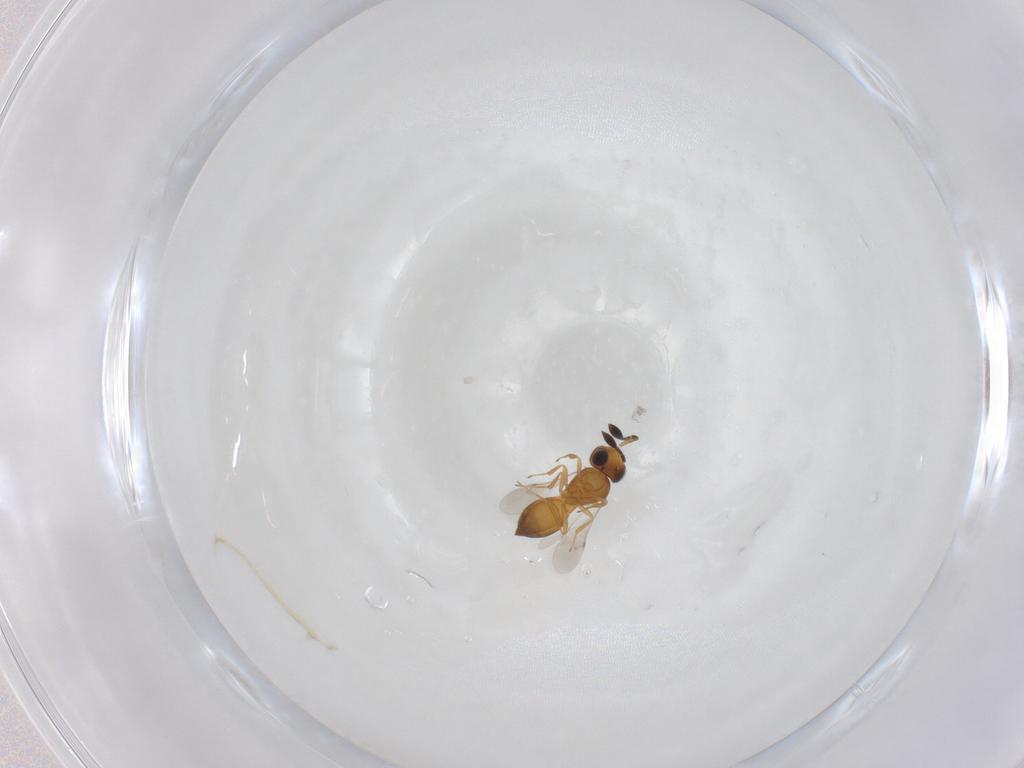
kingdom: Animalia
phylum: Arthropoda
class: Insecta
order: Hymenoptera
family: Scelionidae
